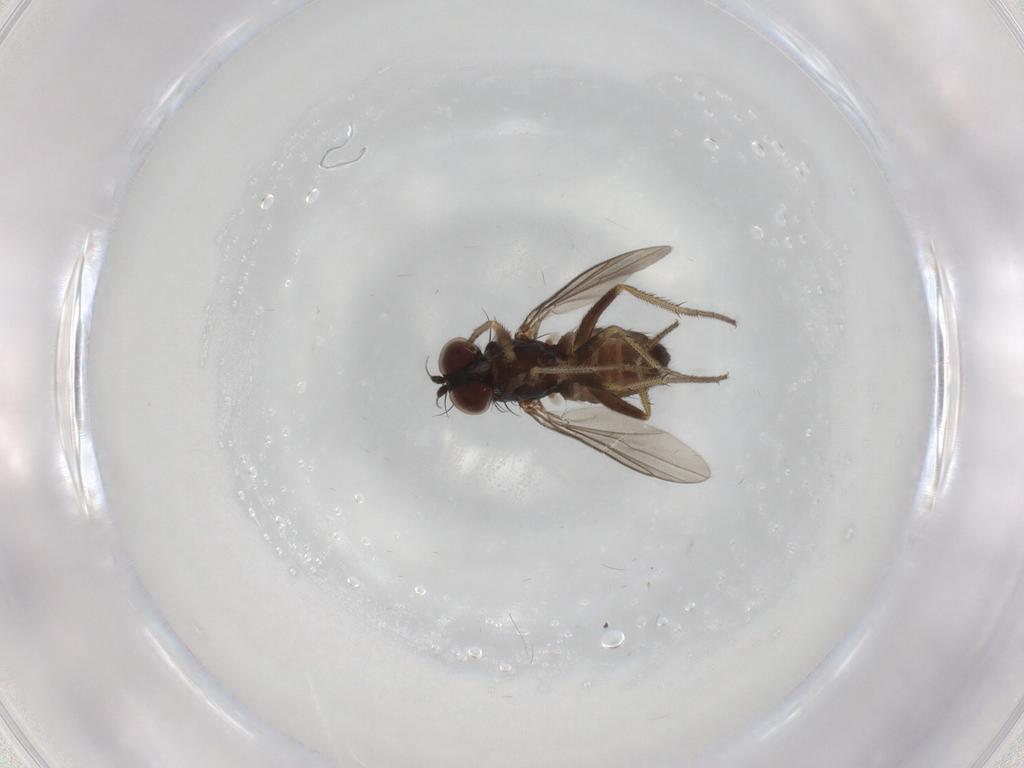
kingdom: Animalia
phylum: Arthropoda
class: Insecta
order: Diptera
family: Dolichopodidae
